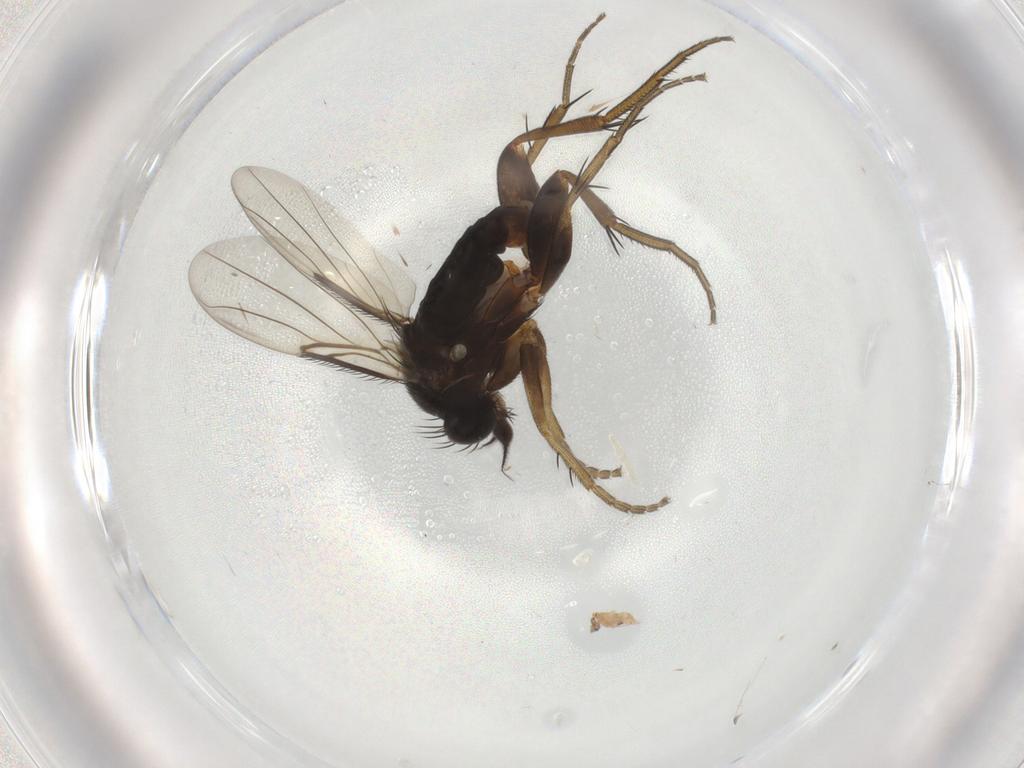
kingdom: Animalia
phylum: Arthropoda
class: Insecta
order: Diptera
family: Phoridae
